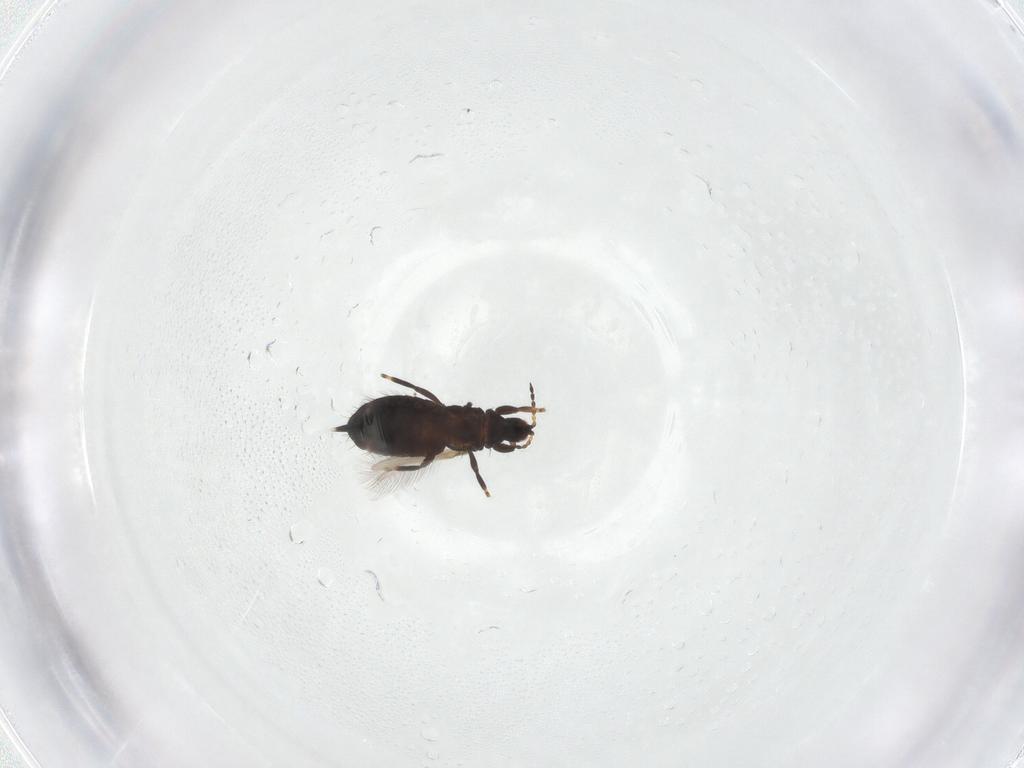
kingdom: Animalia
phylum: Arthropoda
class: Insecta
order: Thysanoptera
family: Phlaeothripidae
